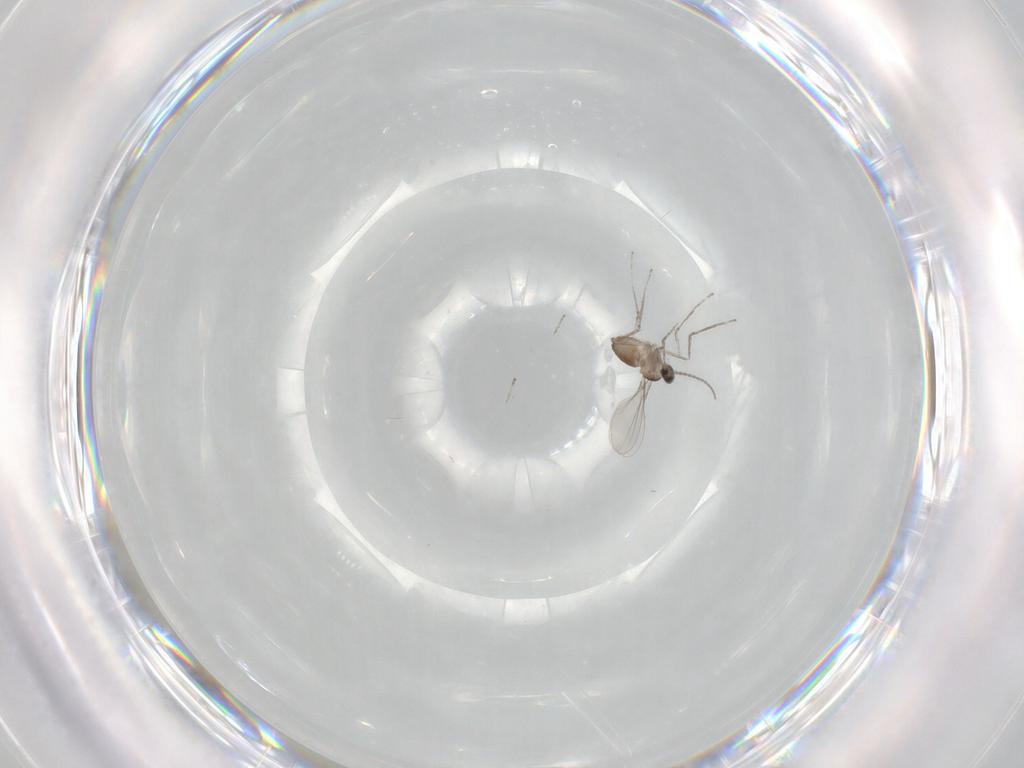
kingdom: Animalia
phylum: Arthropoda
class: Insecta
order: Diptera
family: Cecidomyiidae
